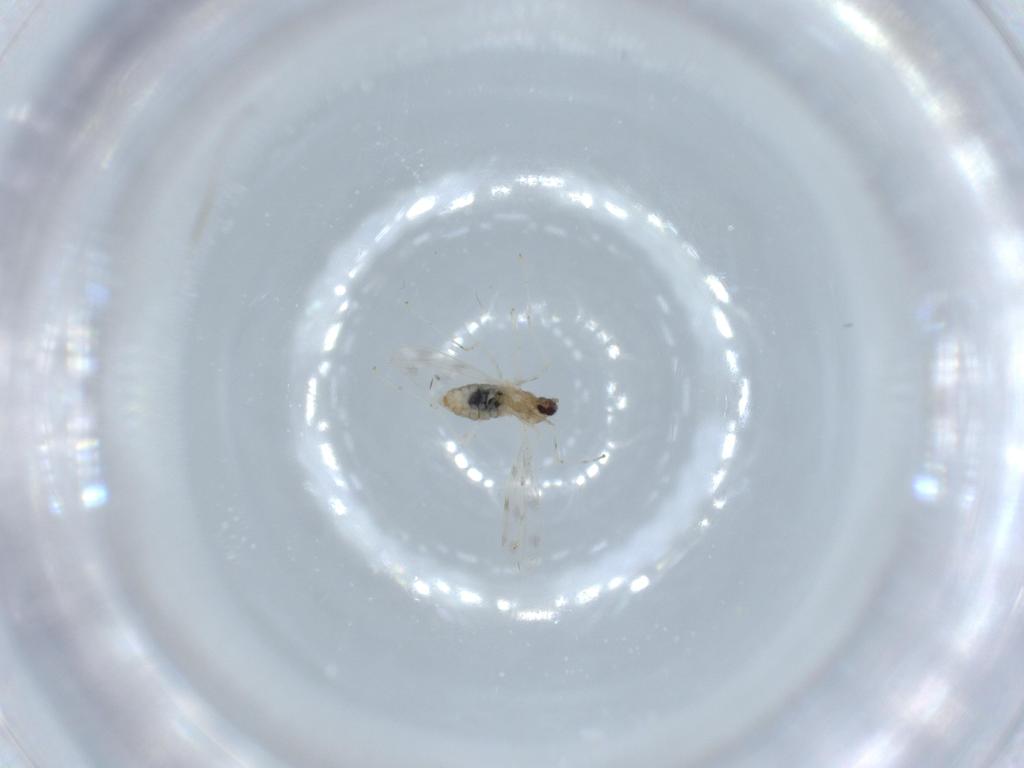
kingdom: Animalia
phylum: Arthropoda
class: Insecta
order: Diptera
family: Cecidomyiidae
